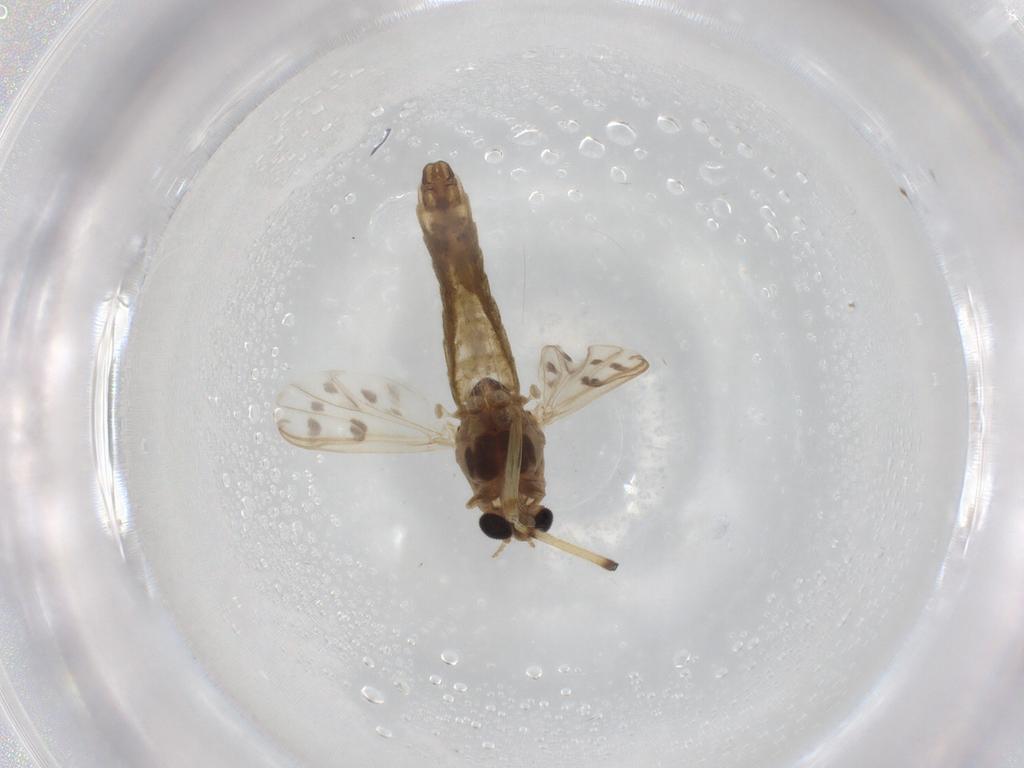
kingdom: Animalia
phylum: Arthropoda
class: Insecta
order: Diptera
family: Chironomidae
